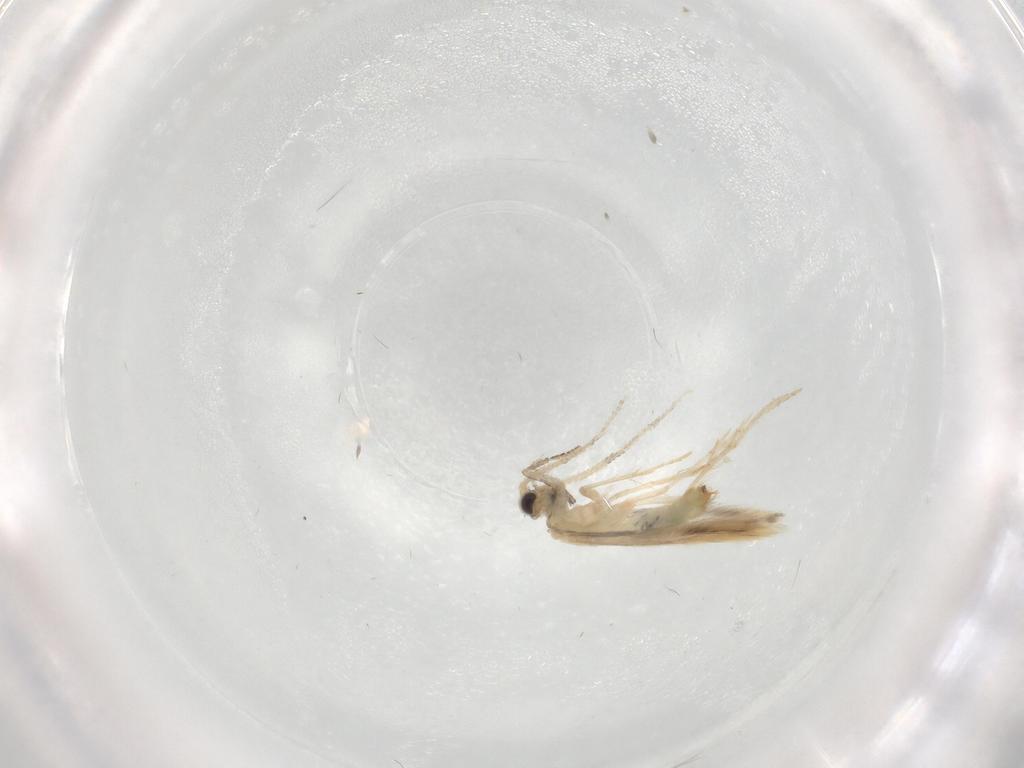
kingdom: Animalia
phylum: Arthropoda
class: Insecta
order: Trichoptera
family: Hydroptilidae
